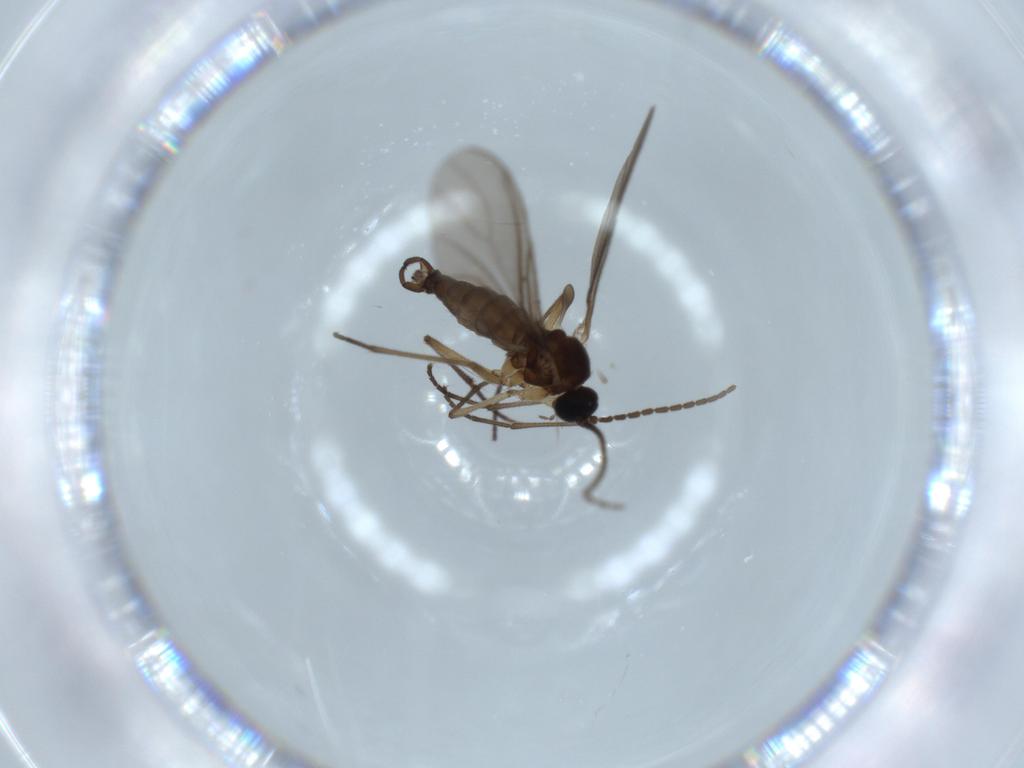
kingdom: Animalia
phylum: Arthropoda
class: Insecta
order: Diptera
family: Sciaridae
